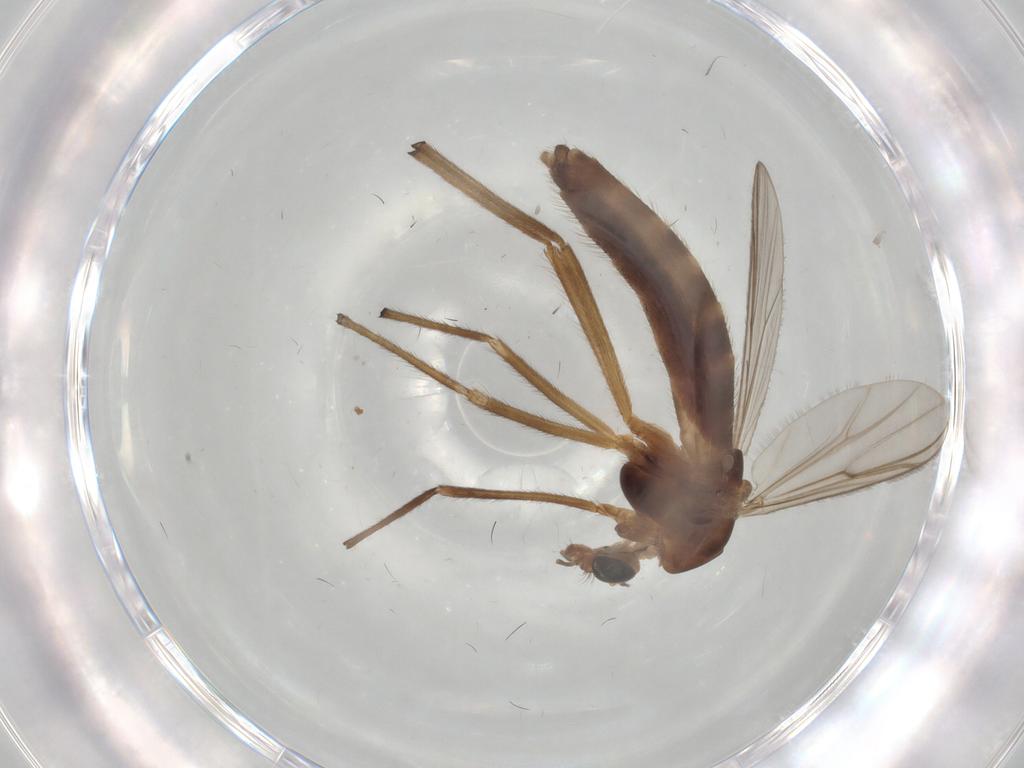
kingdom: Animalia
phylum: Arthropoda
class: Insecta
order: Diptera
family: Chironomidae
